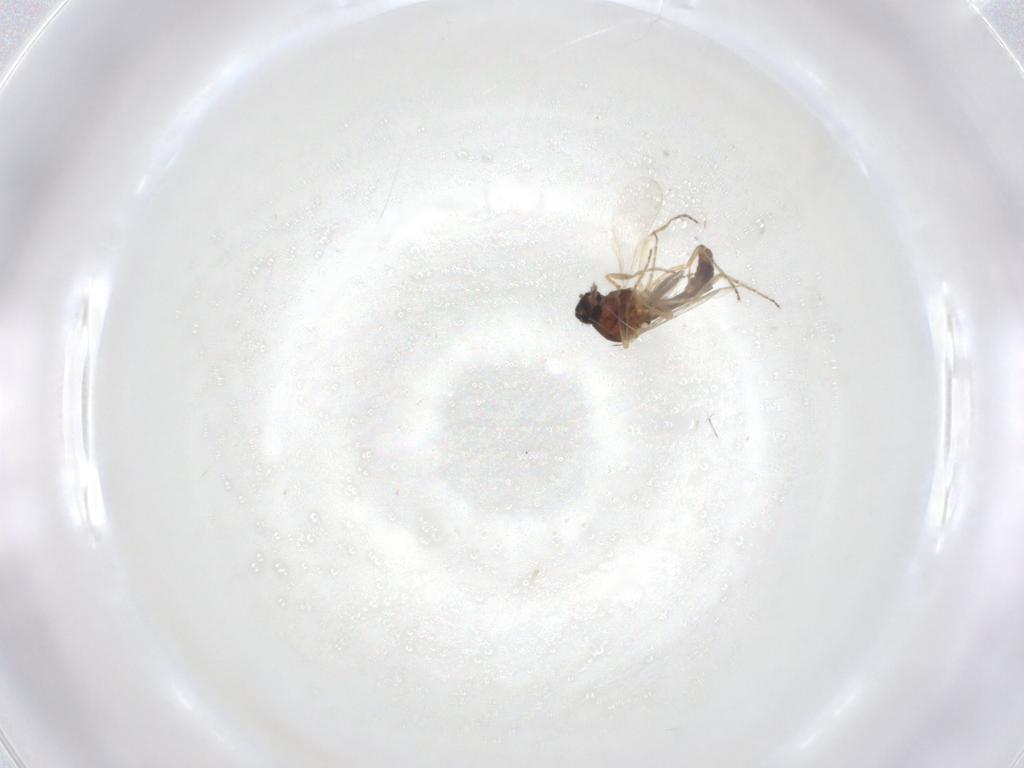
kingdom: Animalia
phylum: Arthropoda
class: Insecta
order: Diptera
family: Ceratopogonidae
